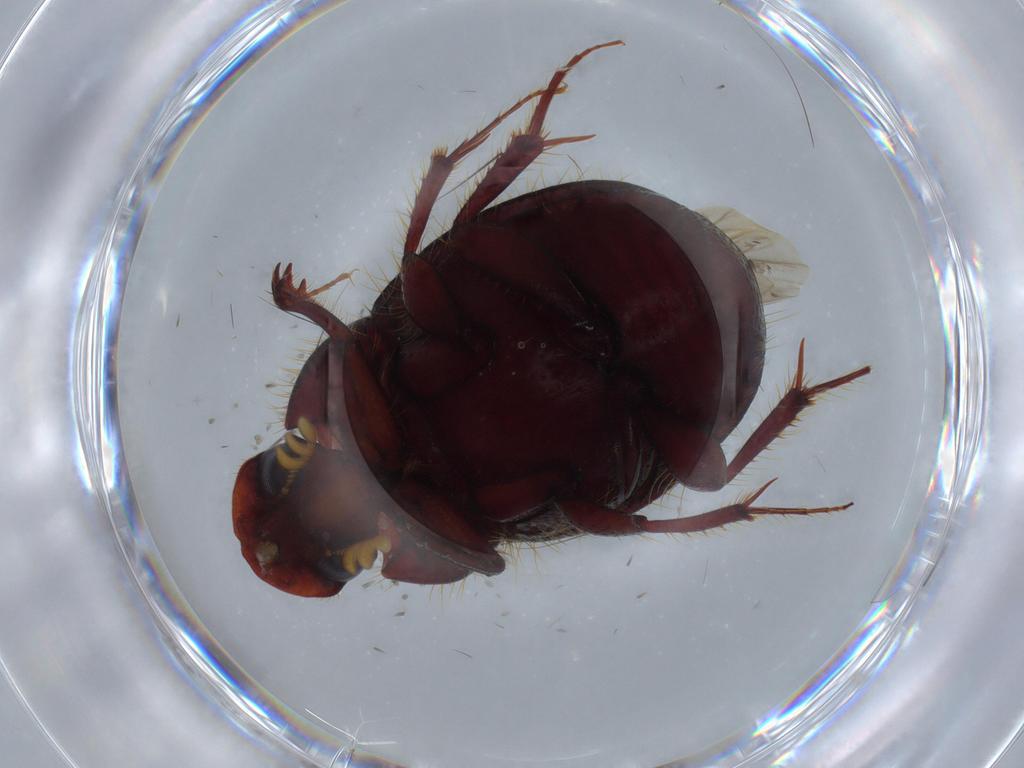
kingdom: Animalia
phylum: Arthropoda
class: Insecta
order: Coleoptera
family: Scarabaeidae
